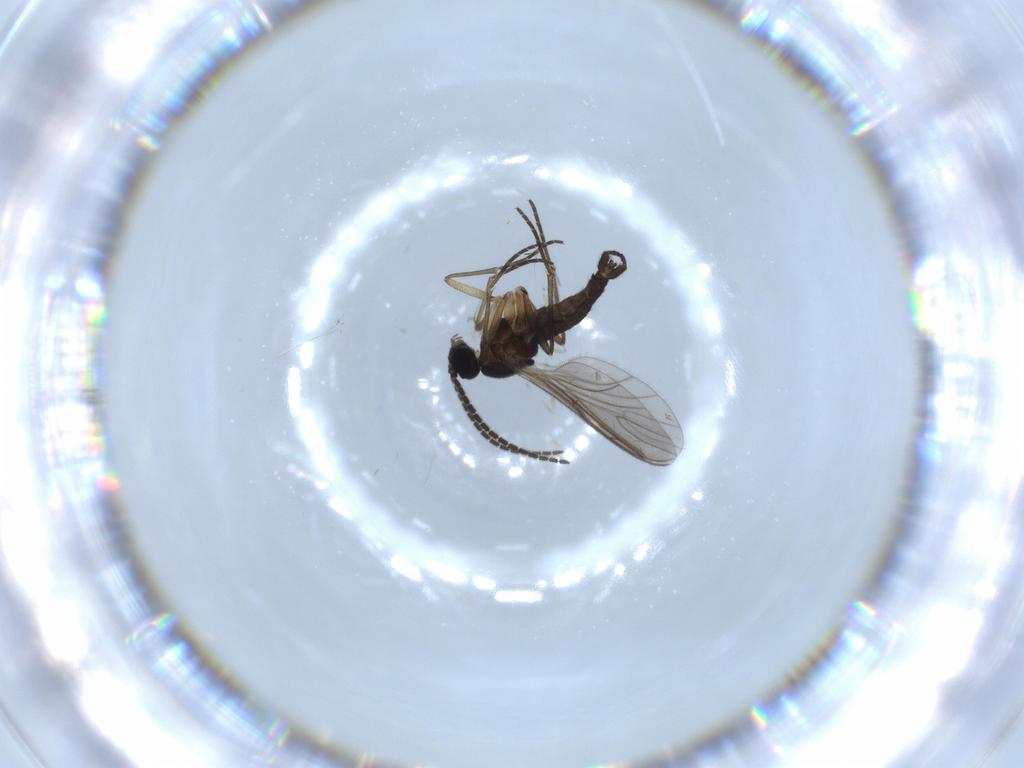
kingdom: Animalia
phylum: Arthropoda
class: Insecta
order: Diptera
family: Sciaridae
